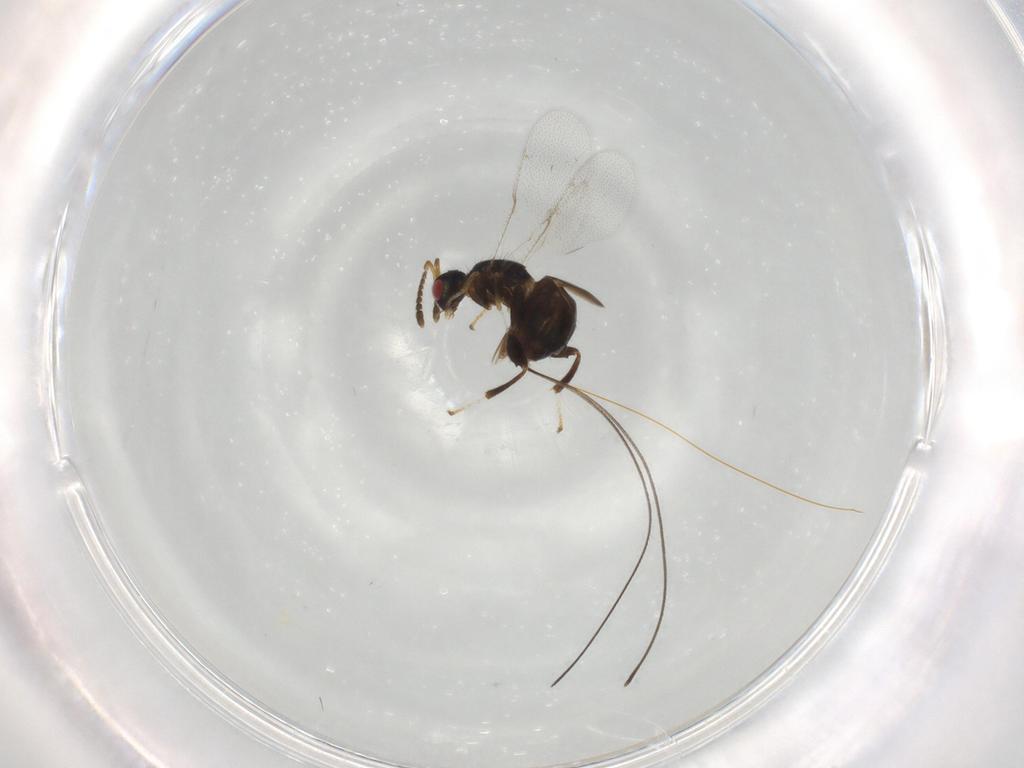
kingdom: Animalia
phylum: Arthropoda
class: Insecta
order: Hymenoptera
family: Torymidae
